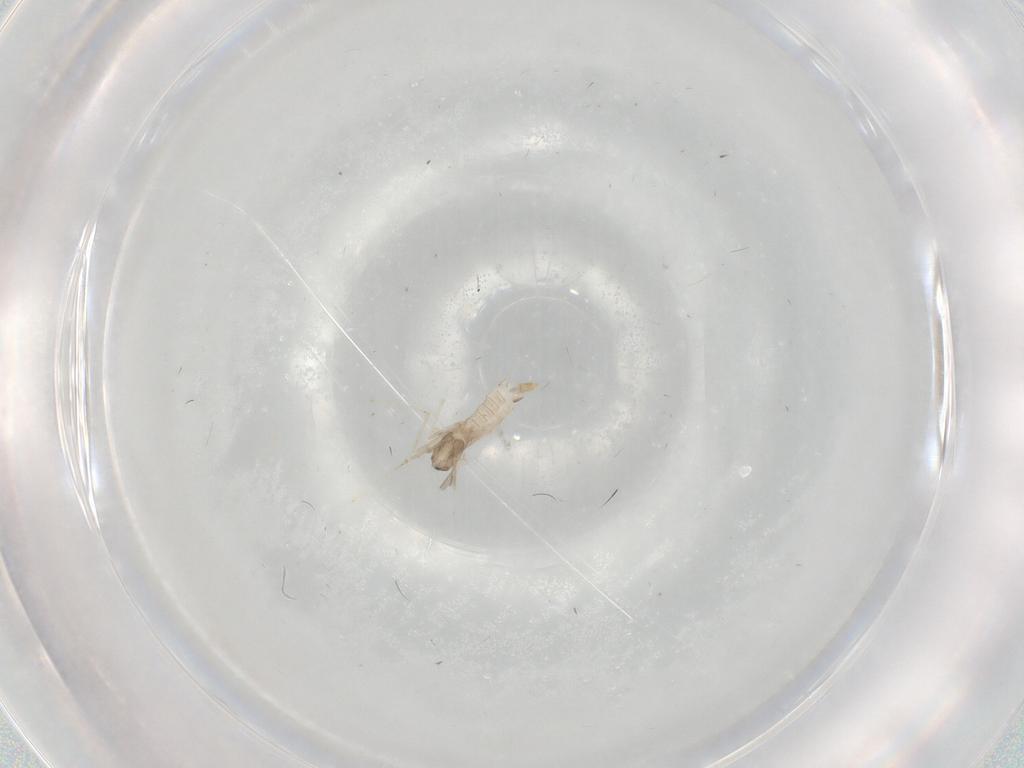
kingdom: Animalia
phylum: Arthropoda
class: Insecta
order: Diptera
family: Cecidomyiidae
